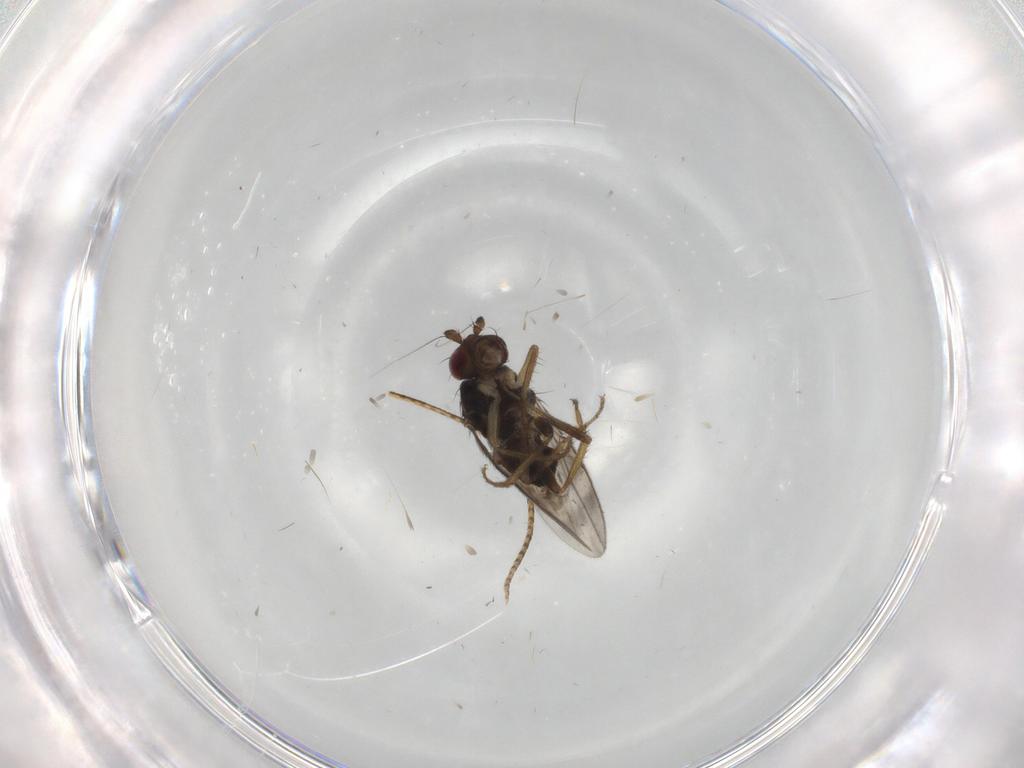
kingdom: Animalia
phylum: Arthropoda
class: Insecta
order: Diptera
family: Sphaeroceridae
